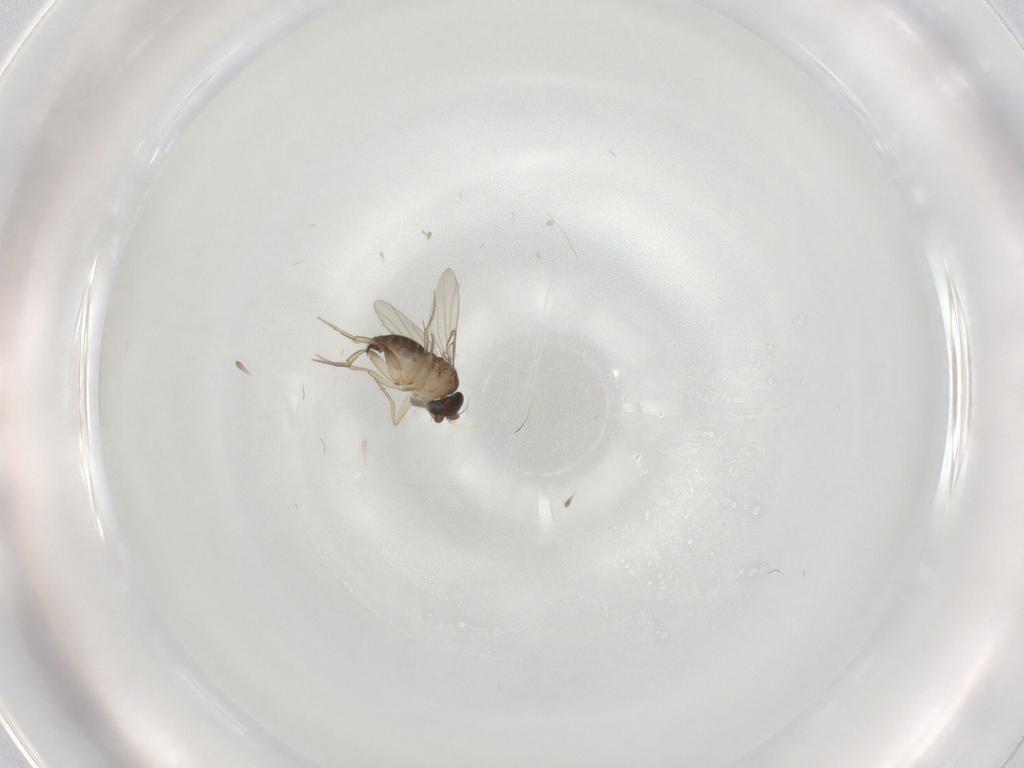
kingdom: Animalia
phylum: Arthropoda
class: Insecta
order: Diptera
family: Phoridae
